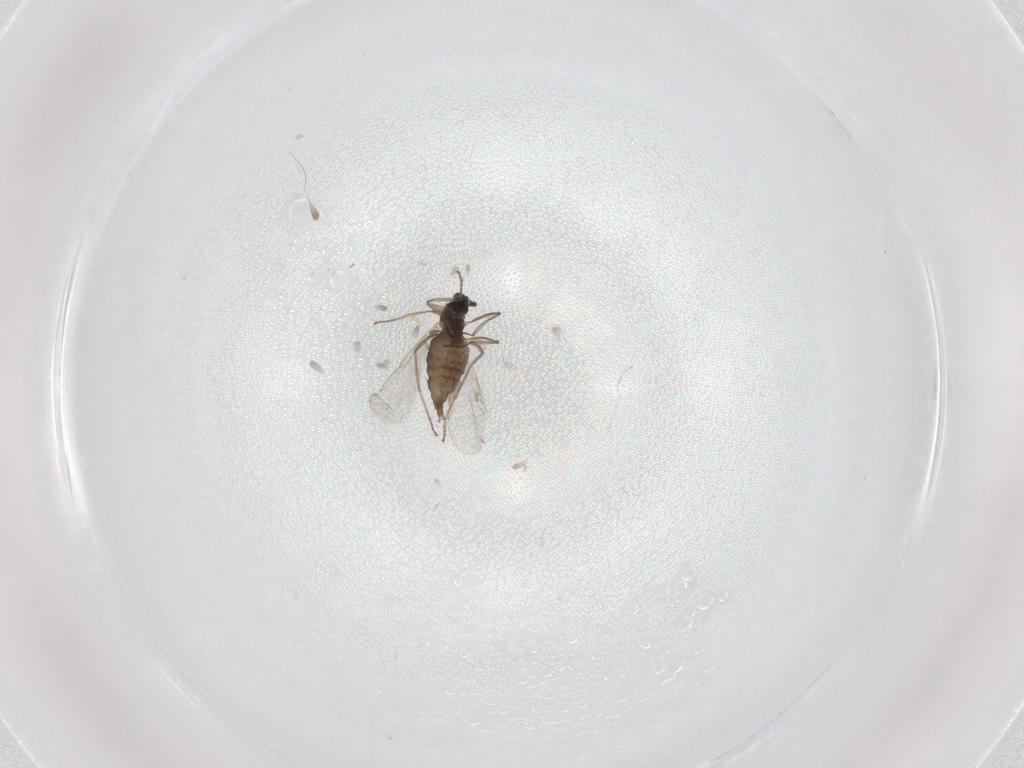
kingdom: Animalia
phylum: Arthropoda
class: Insecta
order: Diptera
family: Cecidomyiidae
